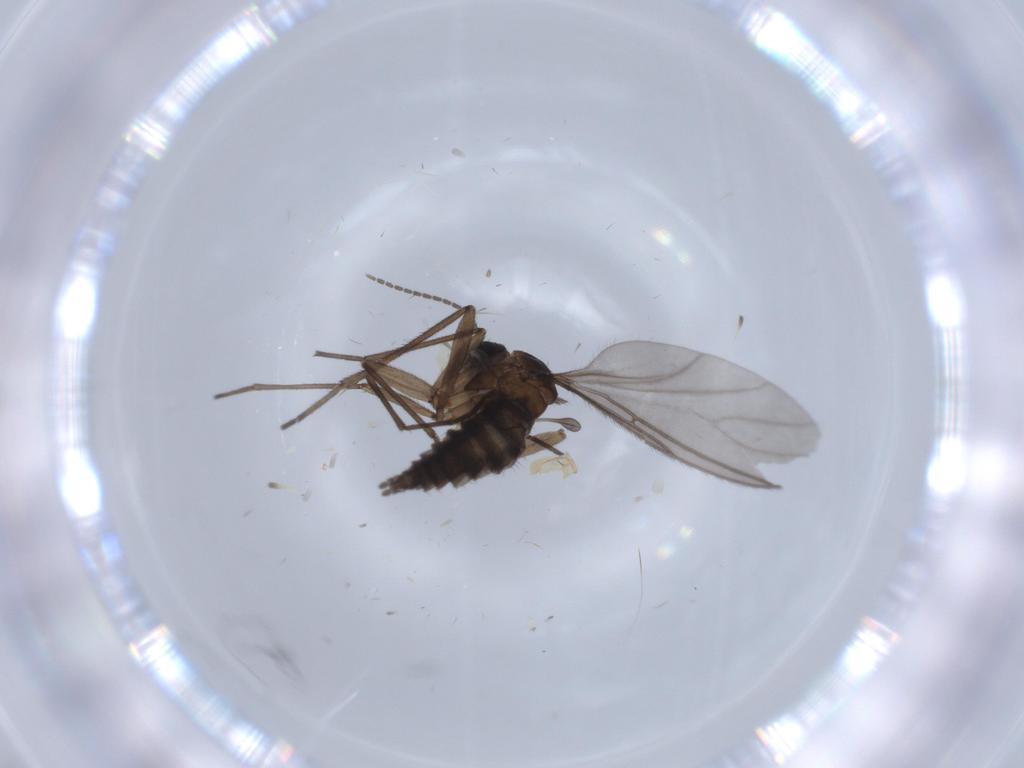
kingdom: Animalia
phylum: Arthropoda
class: Insecta
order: Diptera
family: Sciaridae
